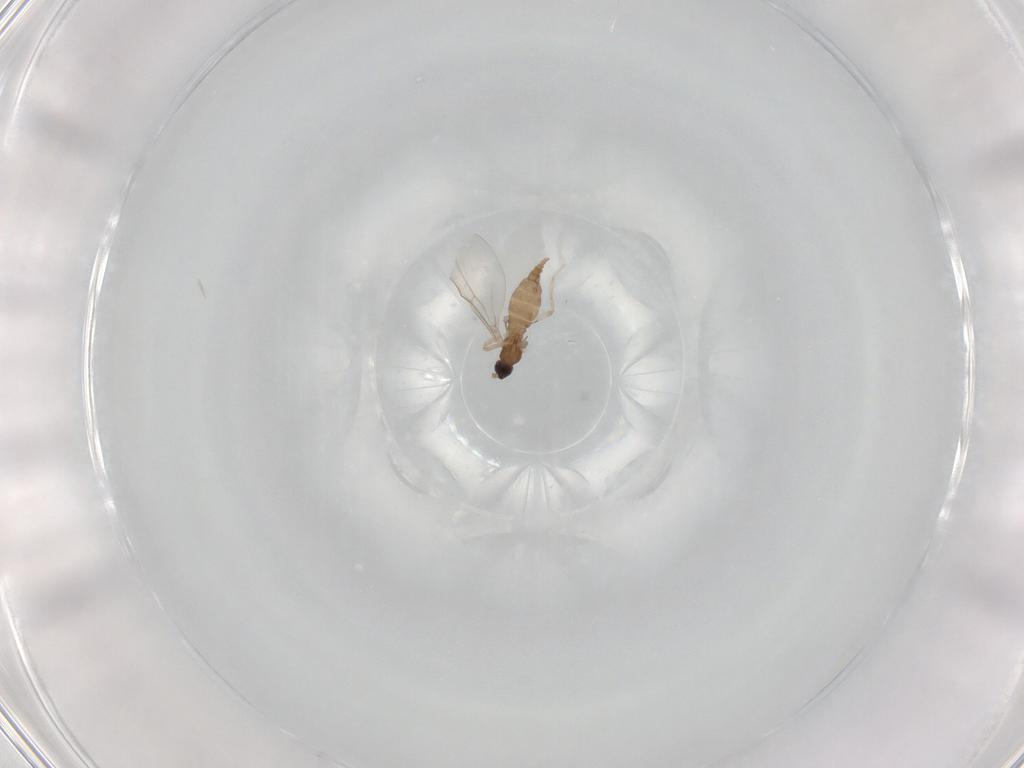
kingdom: Animalia
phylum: Arthropoda
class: Insecta
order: Diptera
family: Cecidomyiidae
